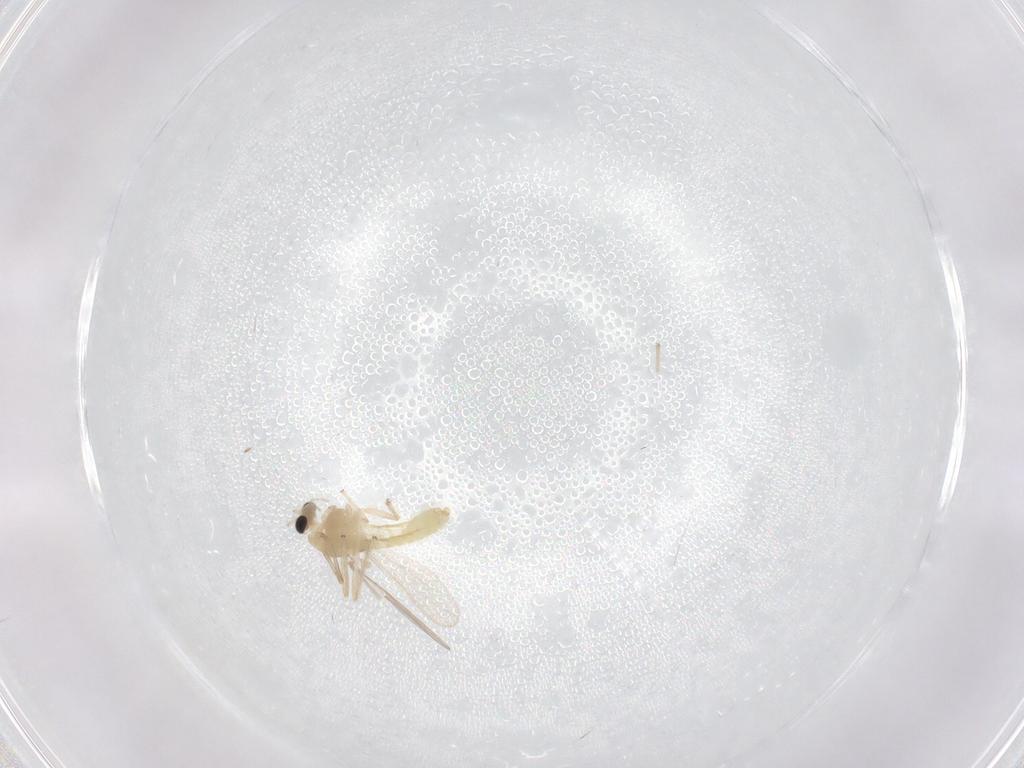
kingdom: Animalia
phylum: Arthropoda
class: Insecta
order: Diptera
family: Chironomidae
